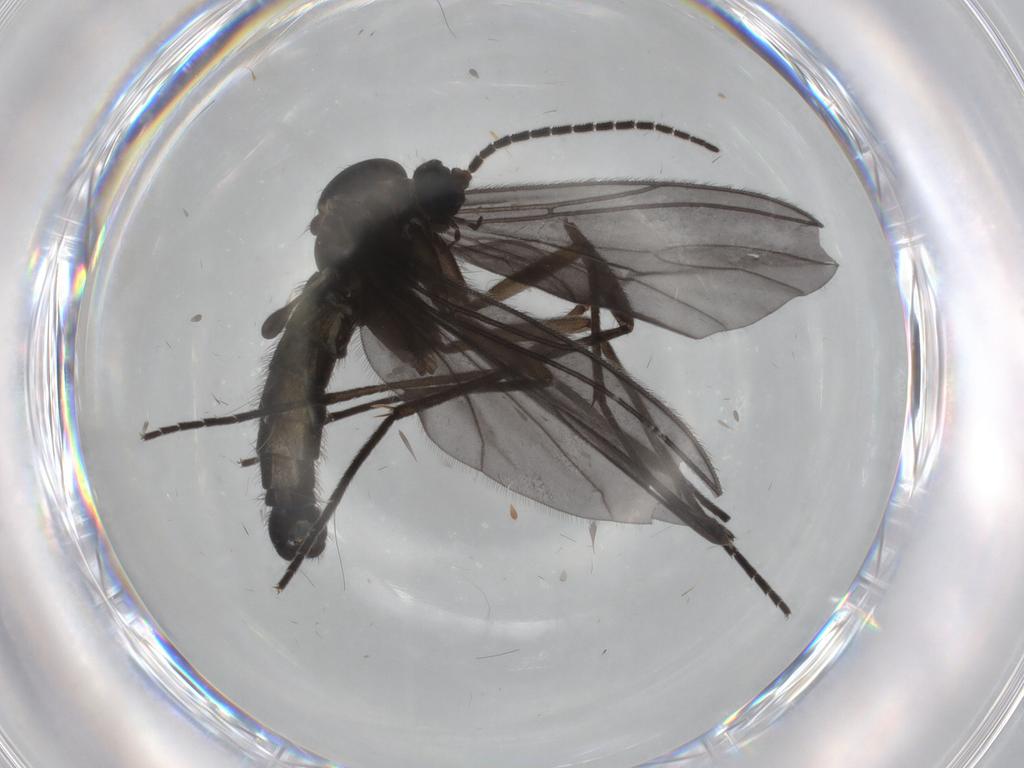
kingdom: Animalia
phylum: Arthropoda
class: Insecta
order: Diptera
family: Sciaridae
